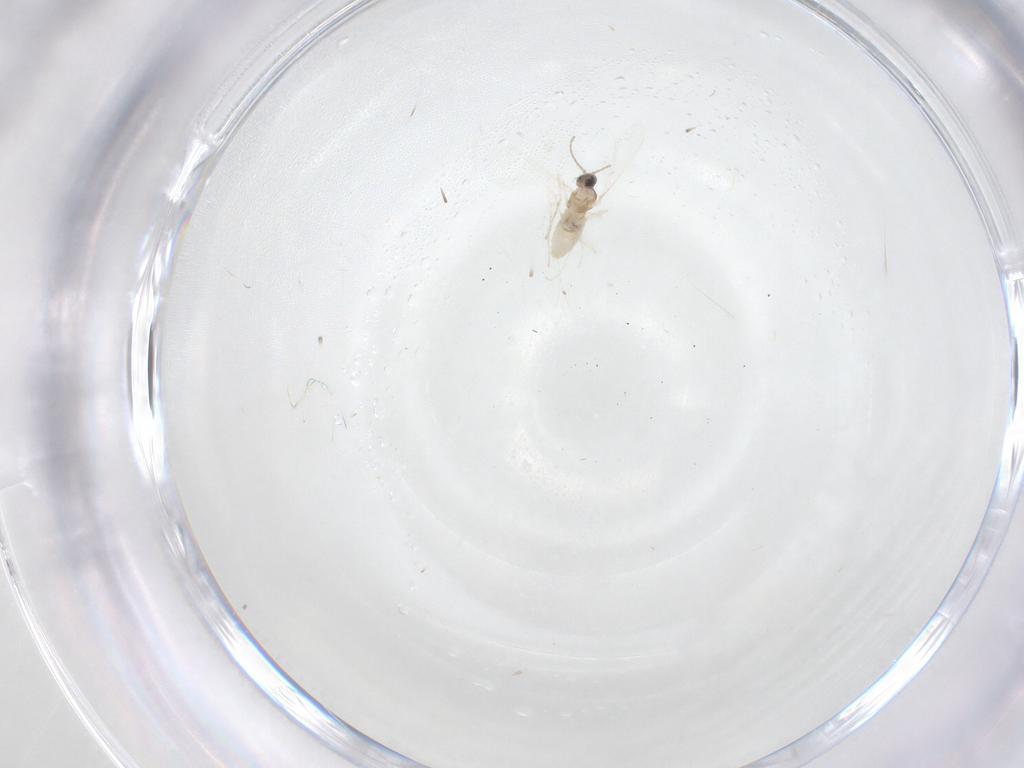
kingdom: Animalia
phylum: Arthropoda
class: Insecta
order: Diptera
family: Cecidomyiidae
